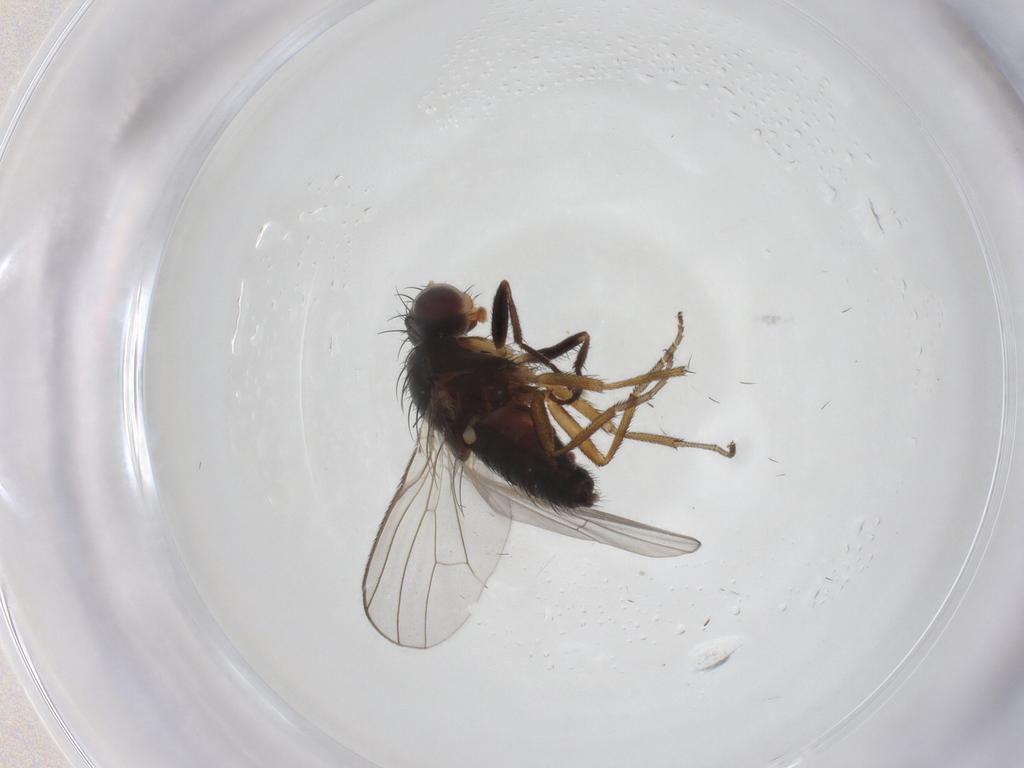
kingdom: Animalia
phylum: Arthropoda
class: Insecta
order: Diptera
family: Heleomyzidae
